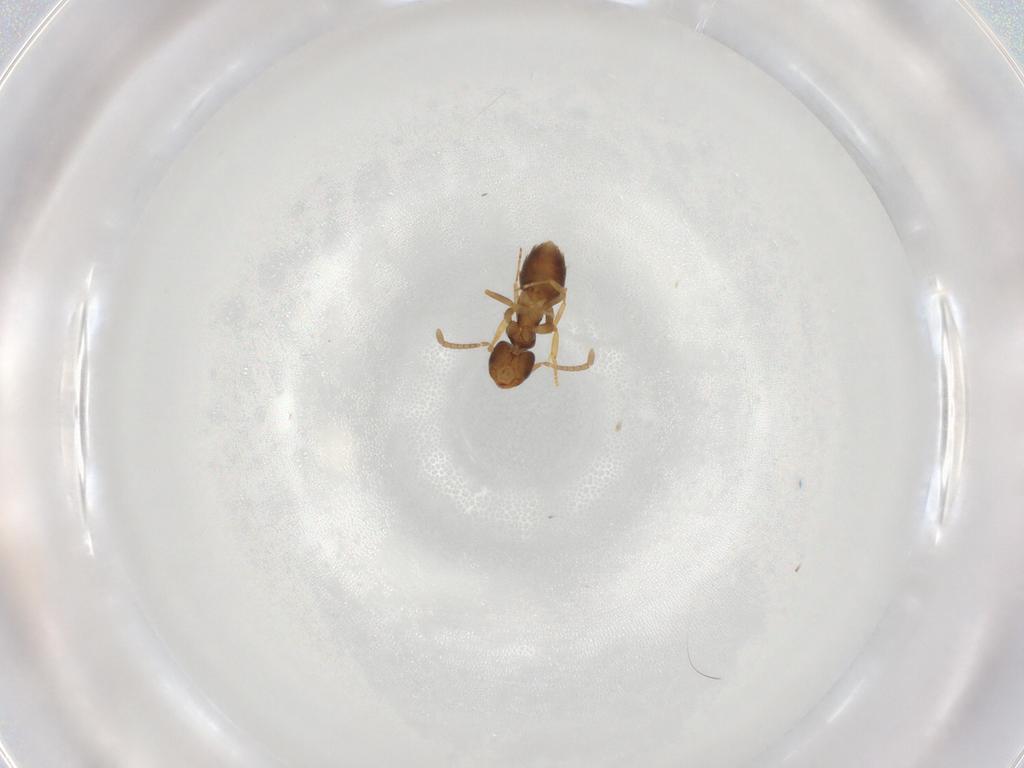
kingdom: Animalia
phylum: Arthropoda
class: Insecta
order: Hymenoptera
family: Formicidae
